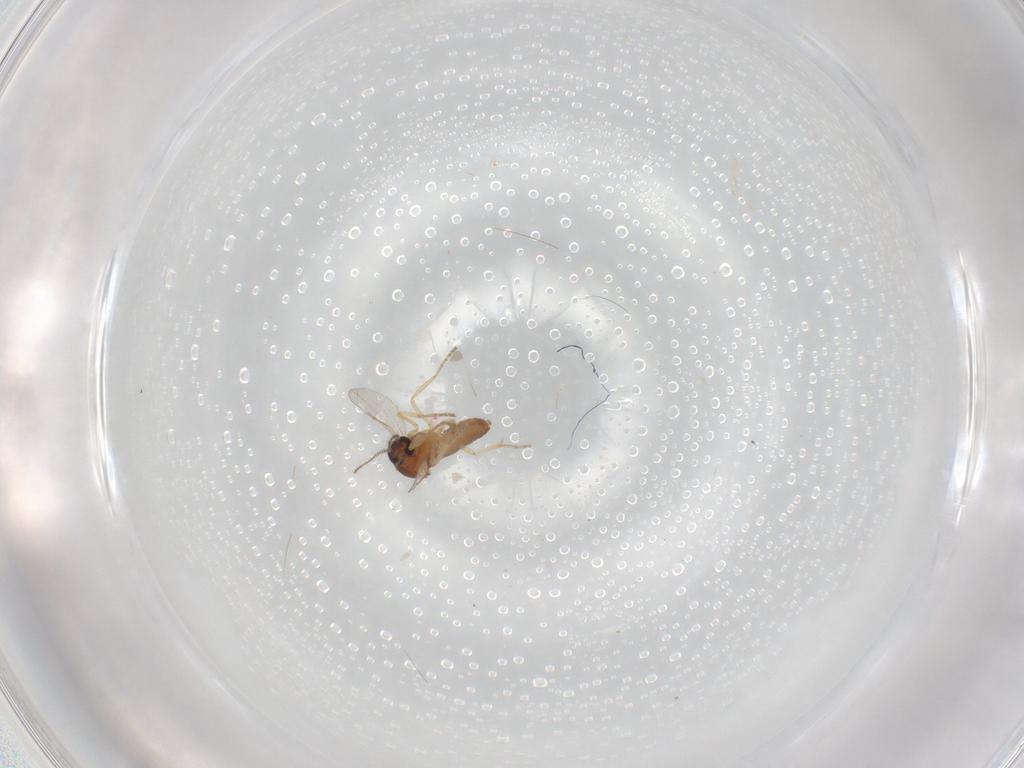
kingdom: Animalia
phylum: Arthropoda
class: Insecta
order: Diptera
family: Ceratopogonidae
